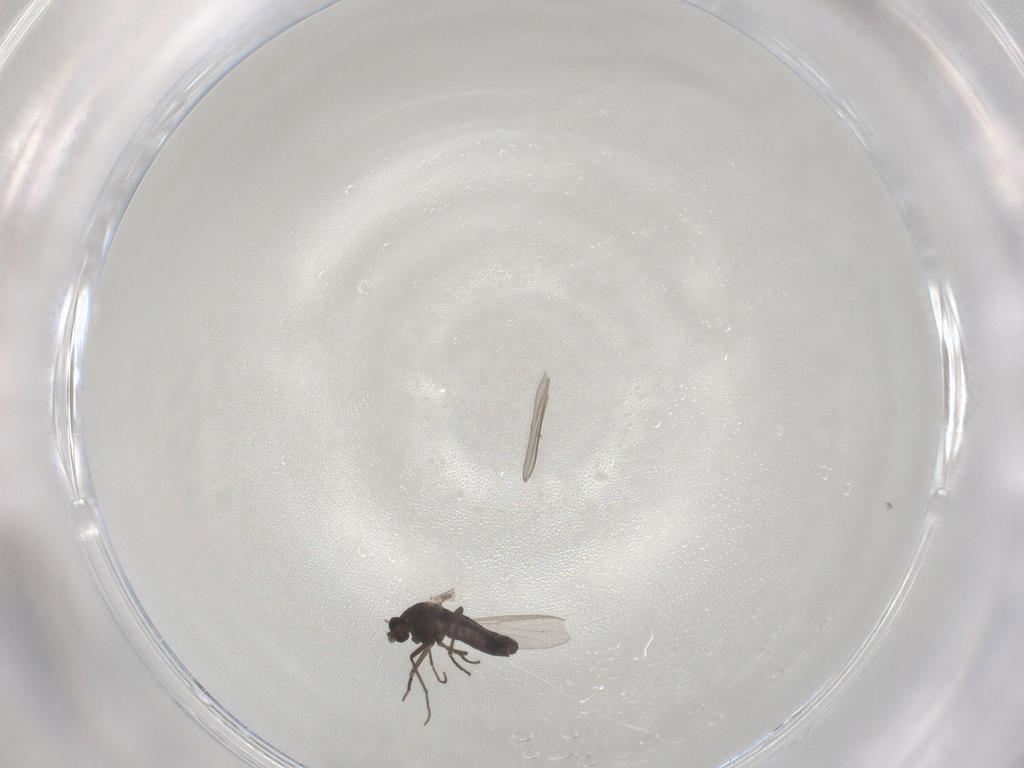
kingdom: Animalia
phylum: Arthropoda
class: Insecta
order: Diptera
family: Chironomidae
